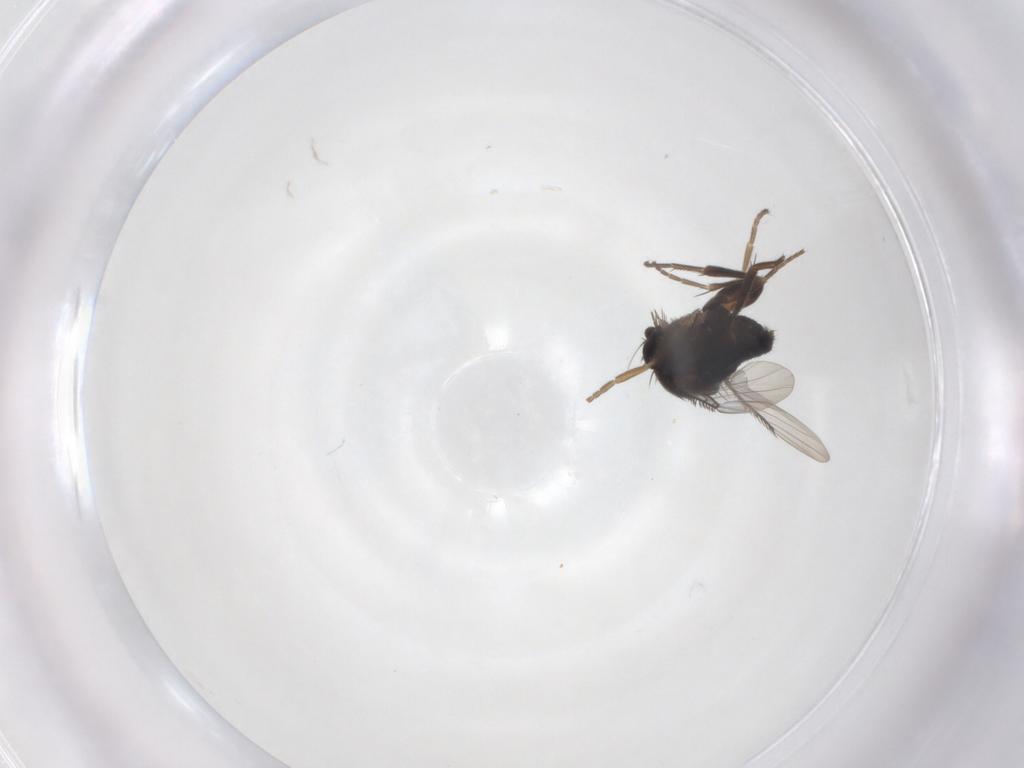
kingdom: Animalia
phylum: Arthropoda
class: Insecta
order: Diptera
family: Phoridae
